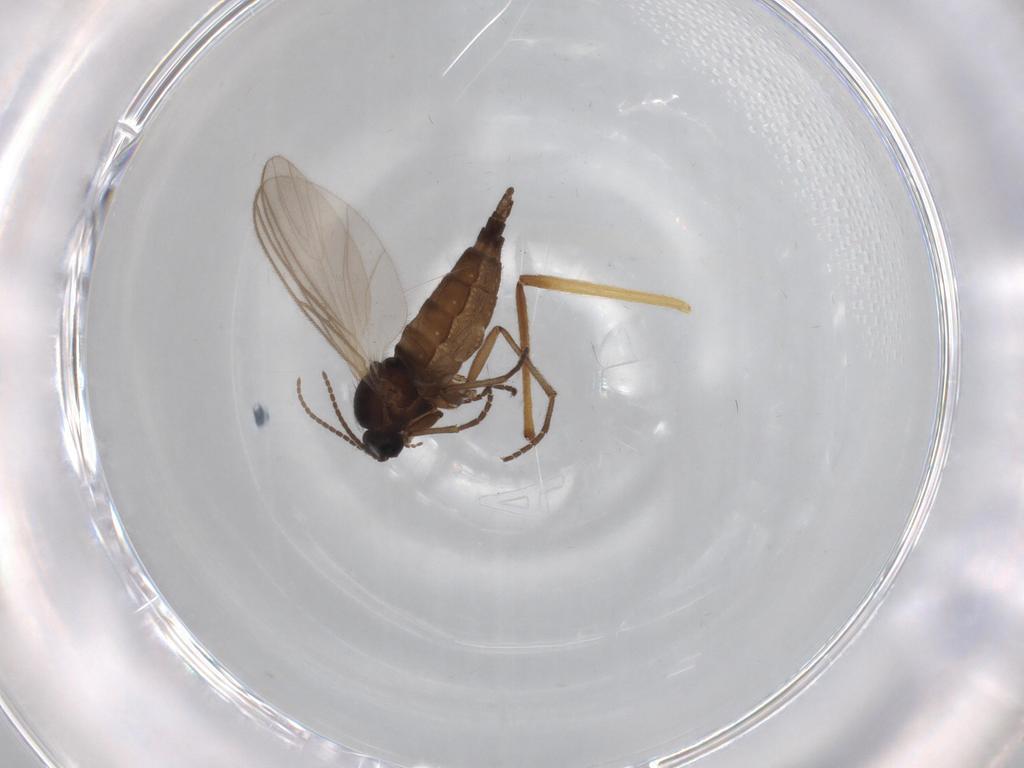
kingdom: Animalia
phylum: Arthropoda
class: Insecta
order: Diptera
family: Sciaridae
